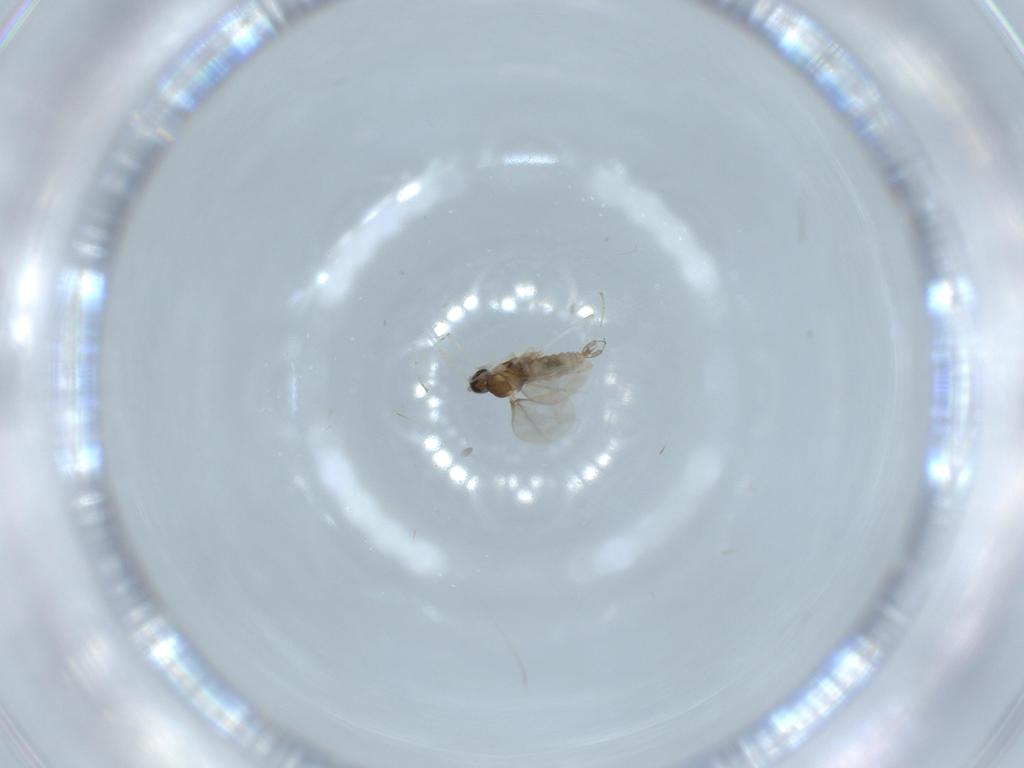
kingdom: Animalia
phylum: Arthropoda
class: Insecta
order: Diptera
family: Cecidomyiidae
